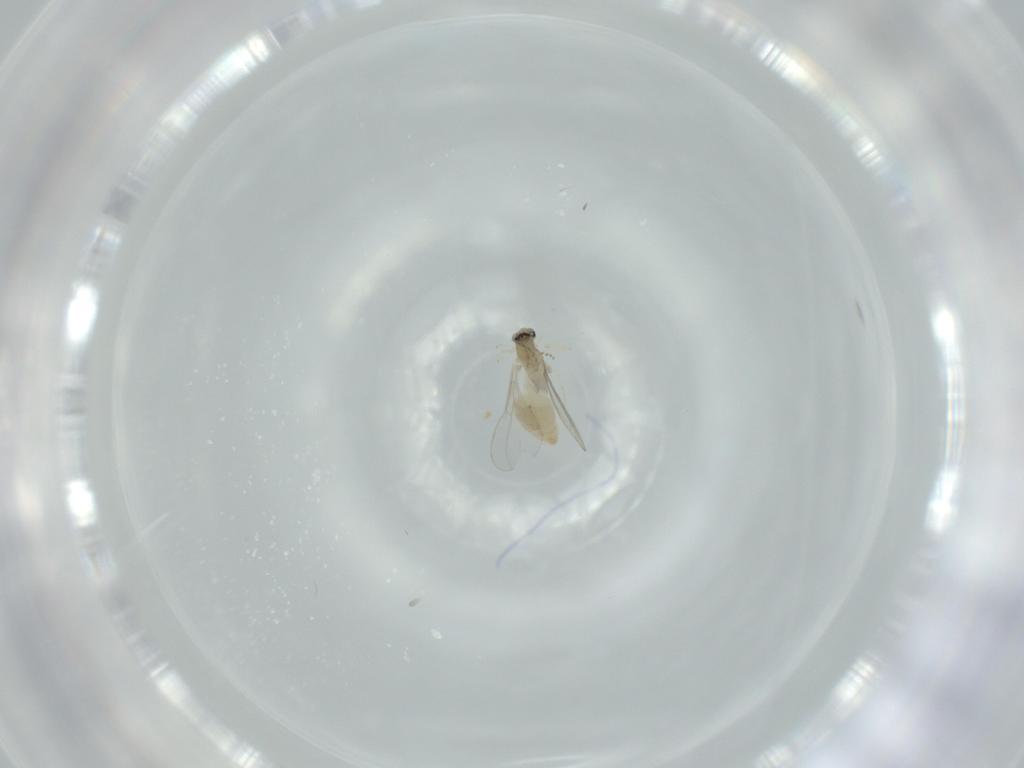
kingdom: Animalia
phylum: Arthropoda
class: Insecta
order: Diptera
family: Cecidomyiidae
